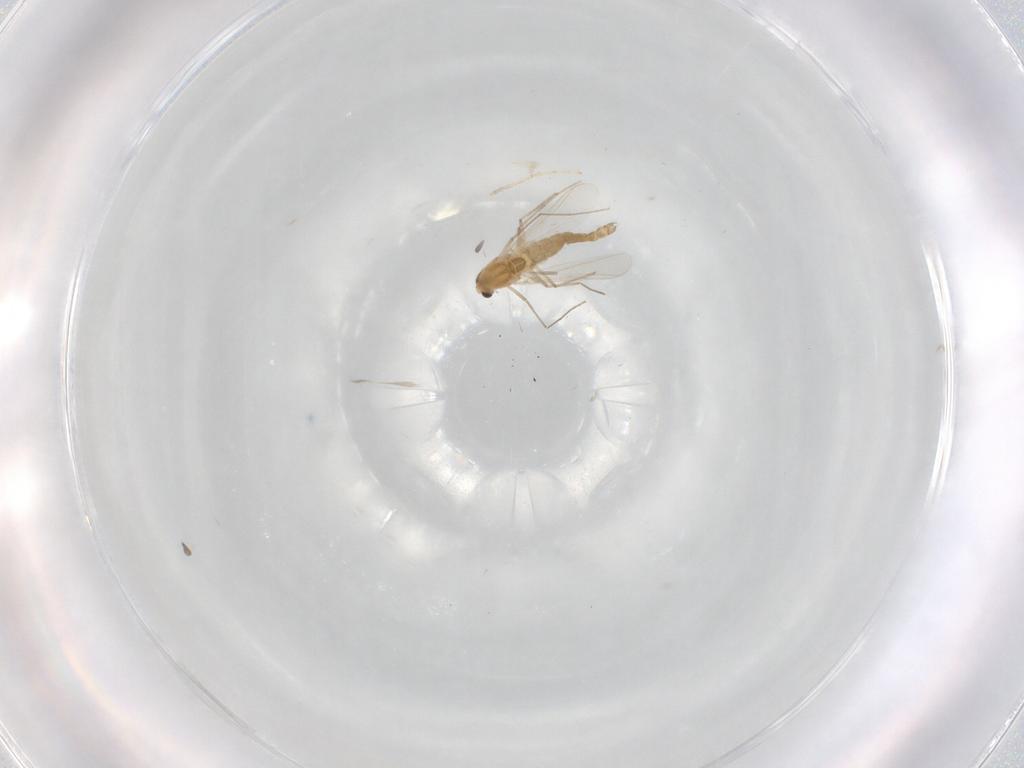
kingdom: Animalia
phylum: Arthropoda
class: Insecta
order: Diptera
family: Chironomidae
